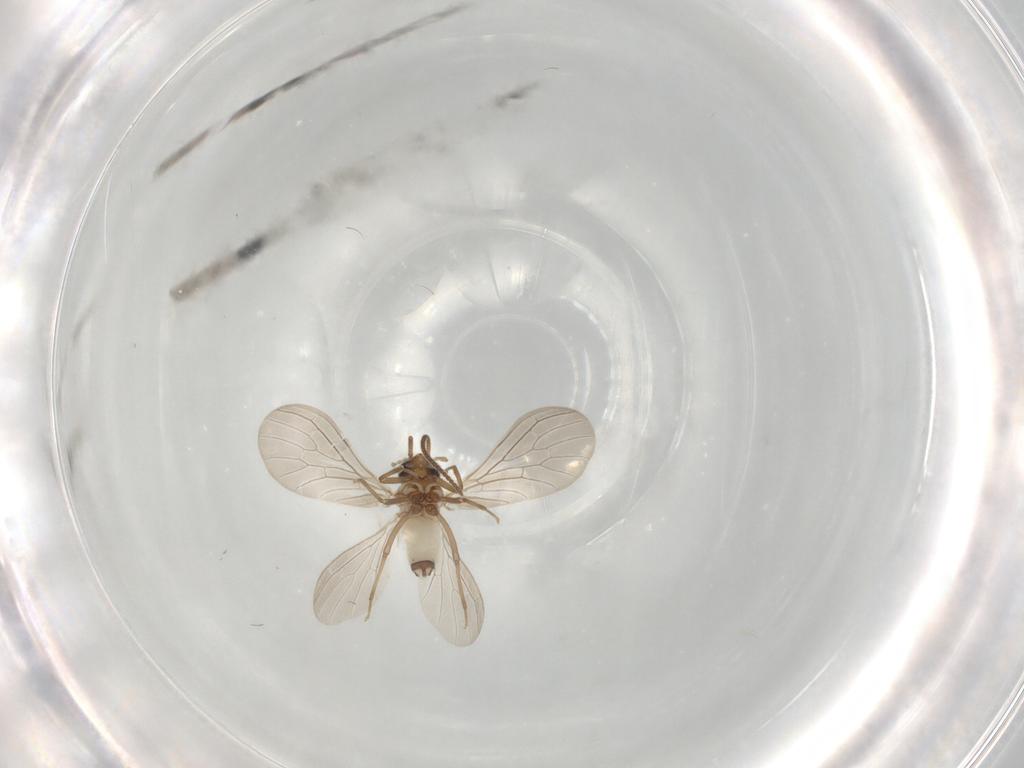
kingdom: Animalia
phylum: Arthropoda
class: Insecta
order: Neuroptera
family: Coniopterygidae
